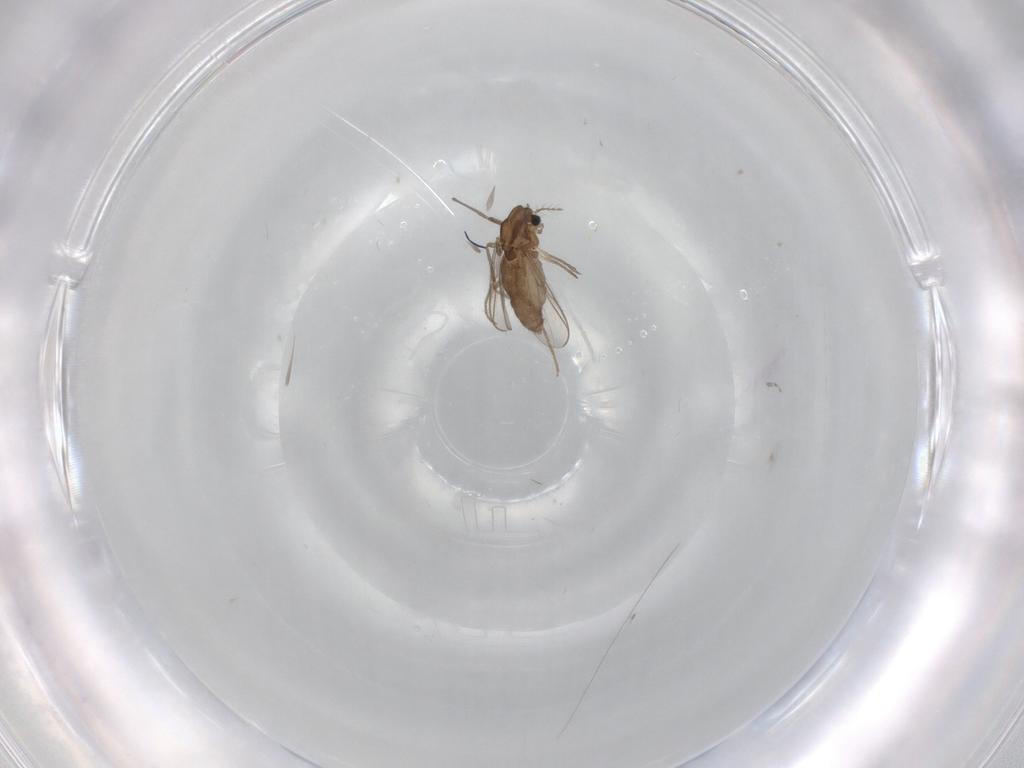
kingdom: Animalia
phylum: Arthropoda
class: Insecta
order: Diptera
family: Chironomidae
